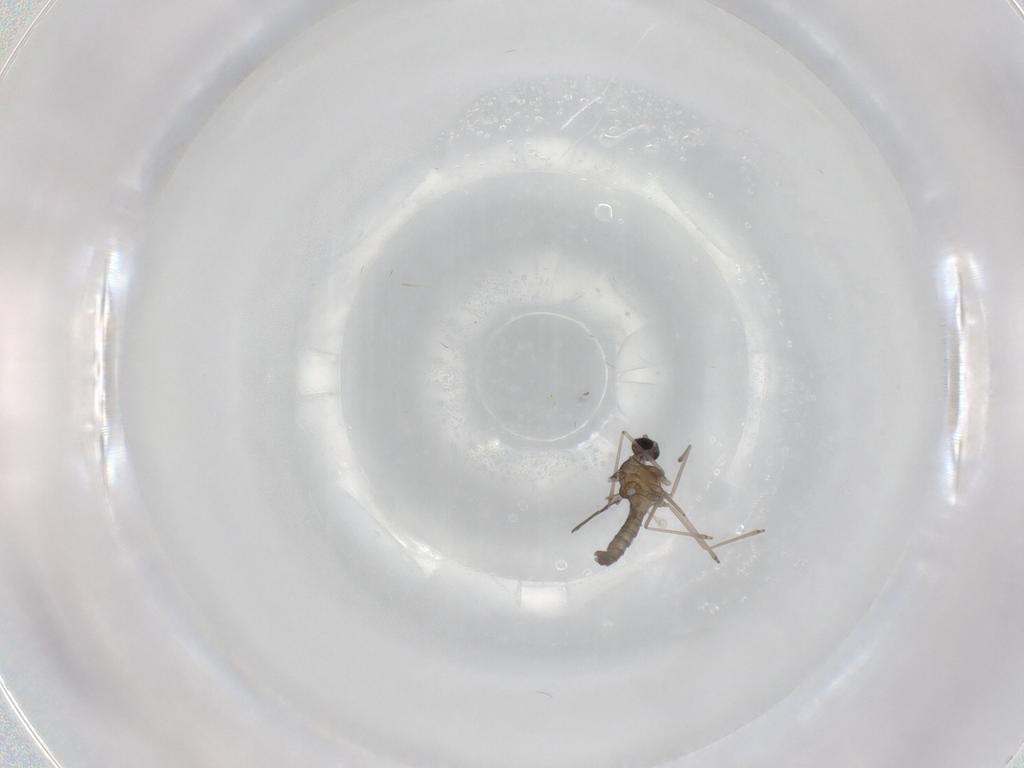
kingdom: Animalia
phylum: Arthropoda
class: Insecta
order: Diptera
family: Cecidomyiidae
